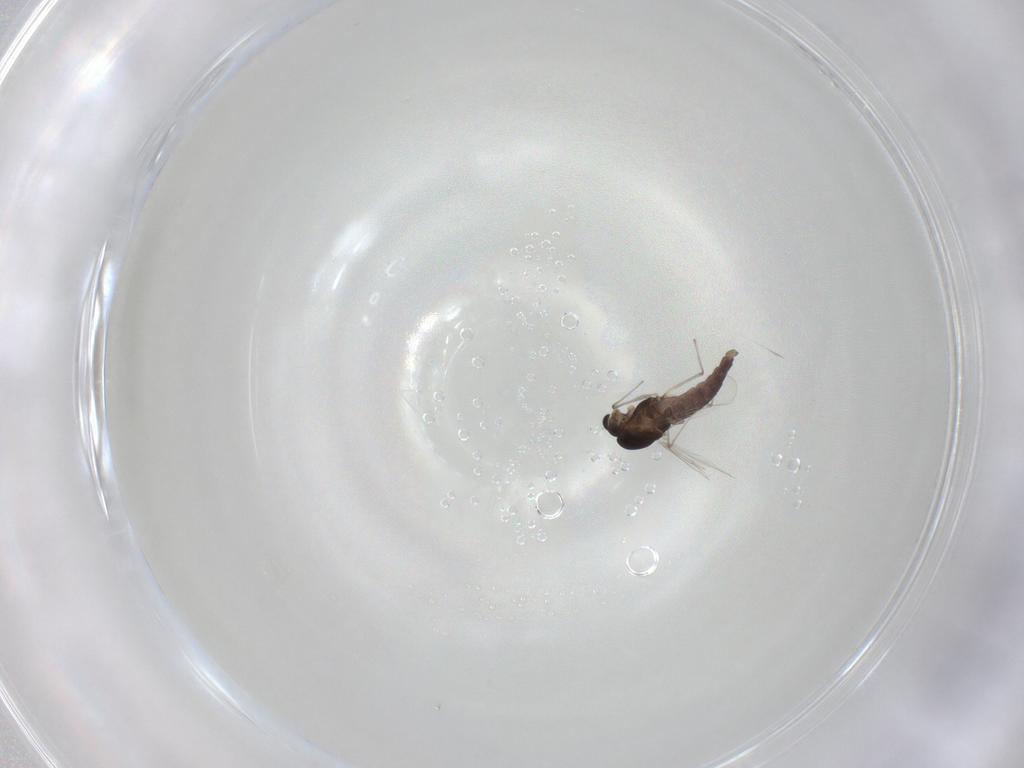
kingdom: Animalia
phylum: Arthropoda
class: Insecta
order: Diptera
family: Chironomidae
